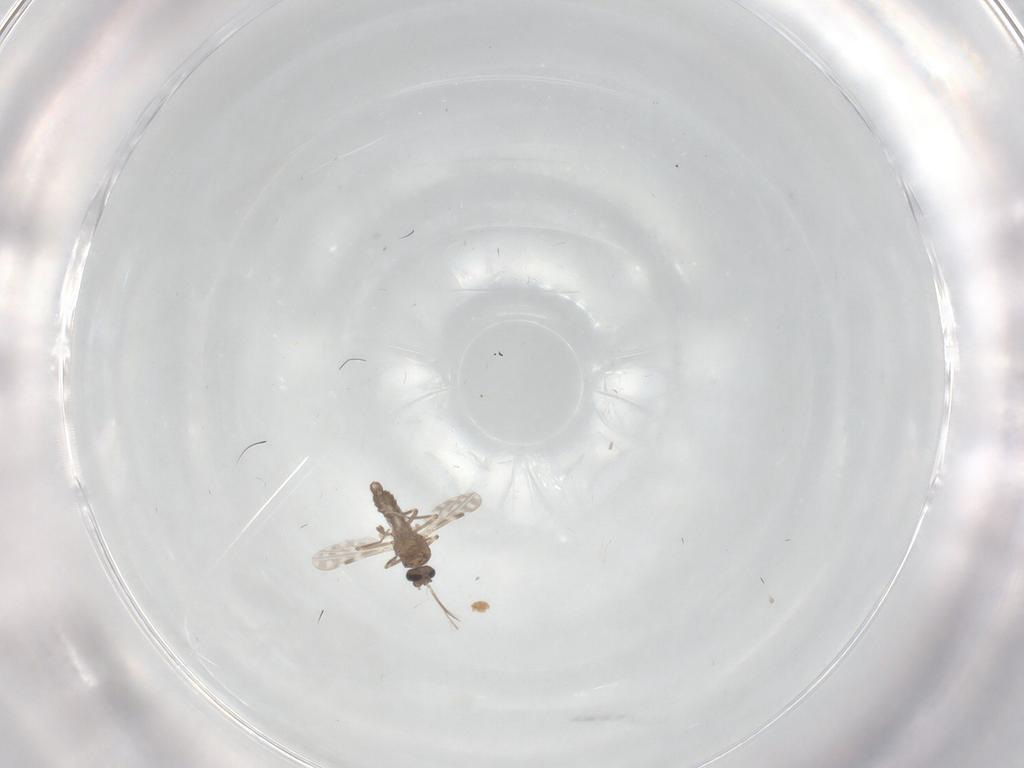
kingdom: Animalia
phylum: Arthropoda
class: Insecta
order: Diptera
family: Ceratopogonidae
